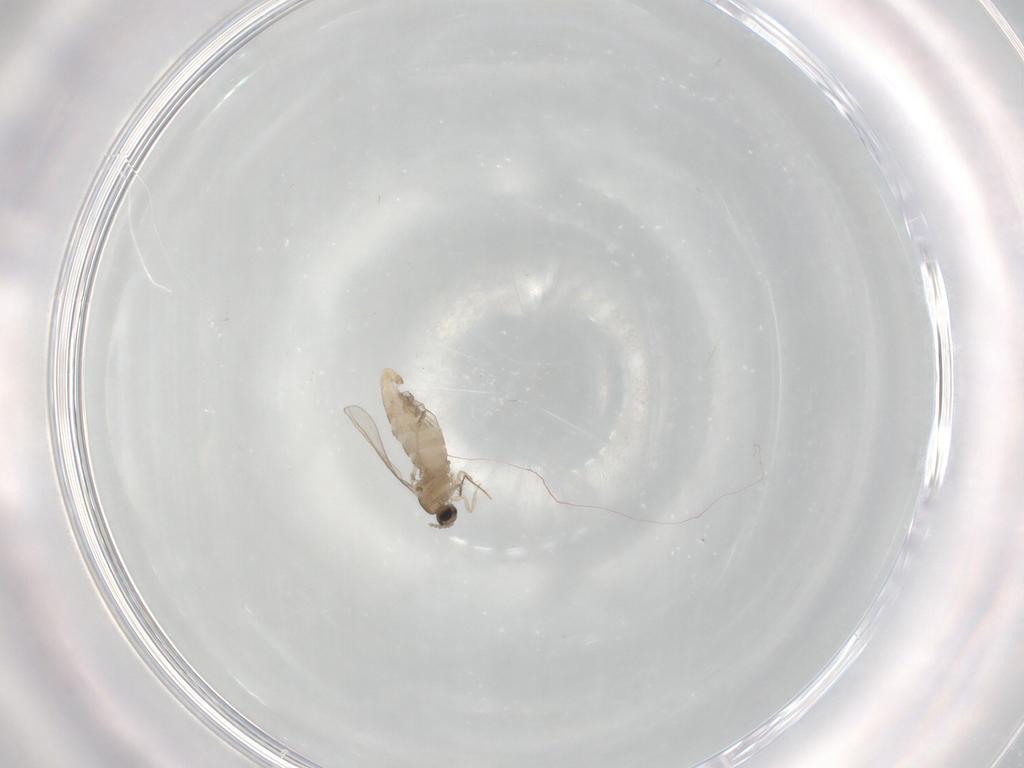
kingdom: Animalia
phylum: Arthropoda
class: Insecta
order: Diptera
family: Cecidomyiidae
